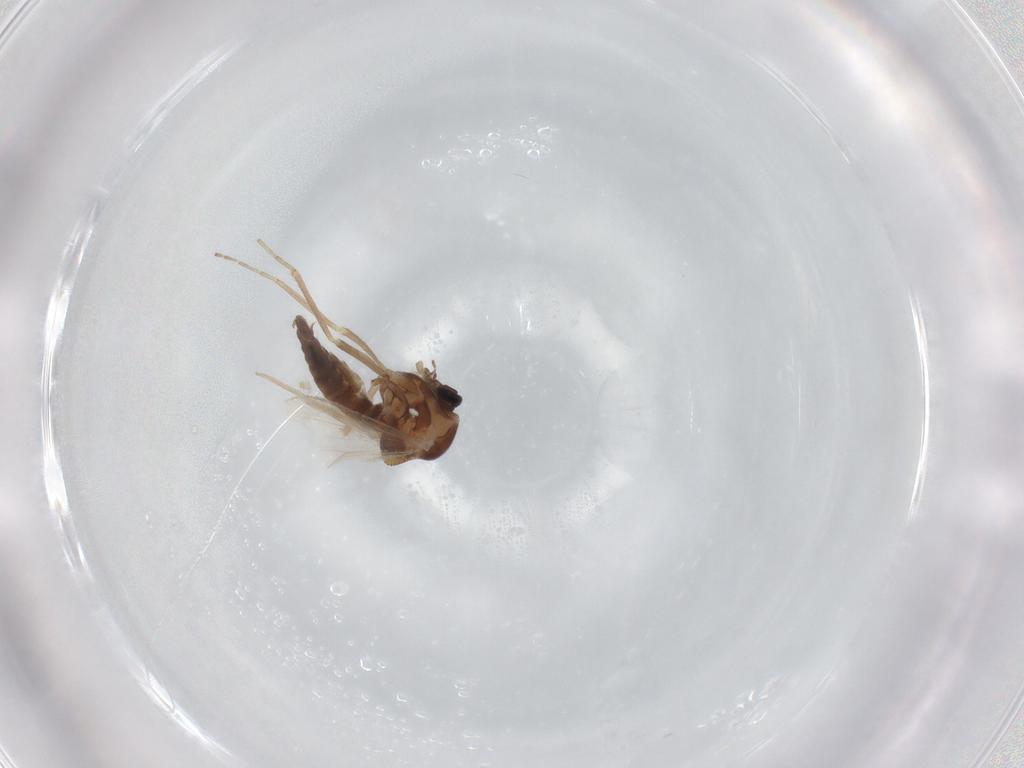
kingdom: Animalia
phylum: Arthropoda
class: Insecta
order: Diptera
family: Ceratopogonidae
